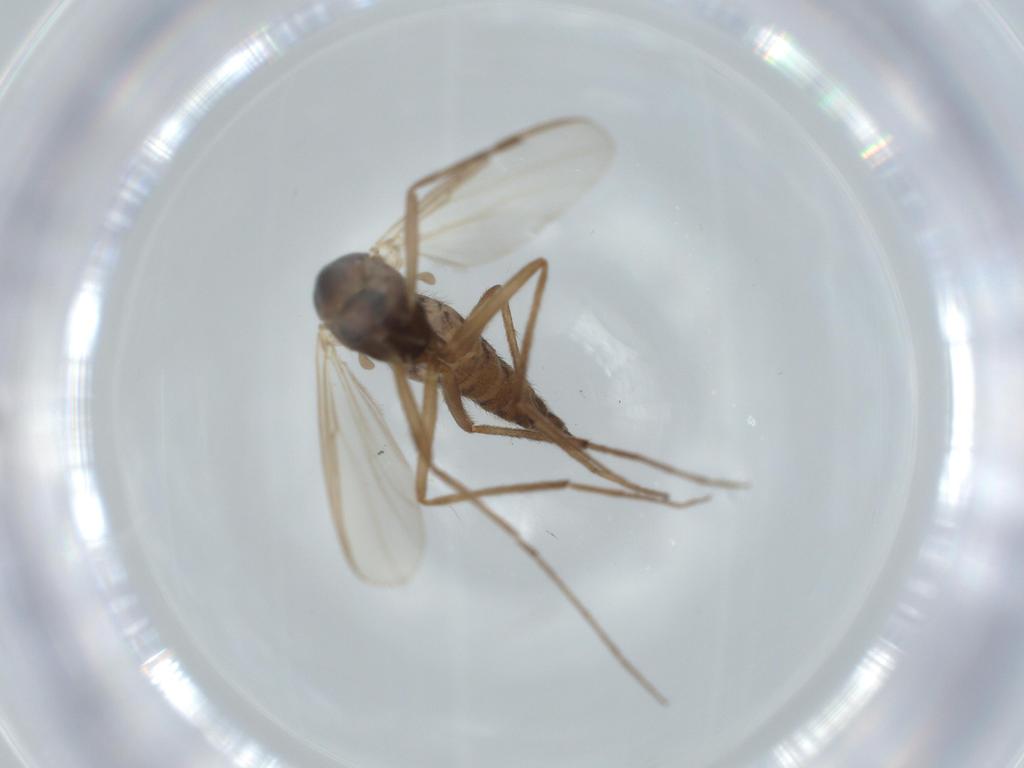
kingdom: Animalia
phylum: Arthropoda
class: Insecta
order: Diptera
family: Chironomidae
